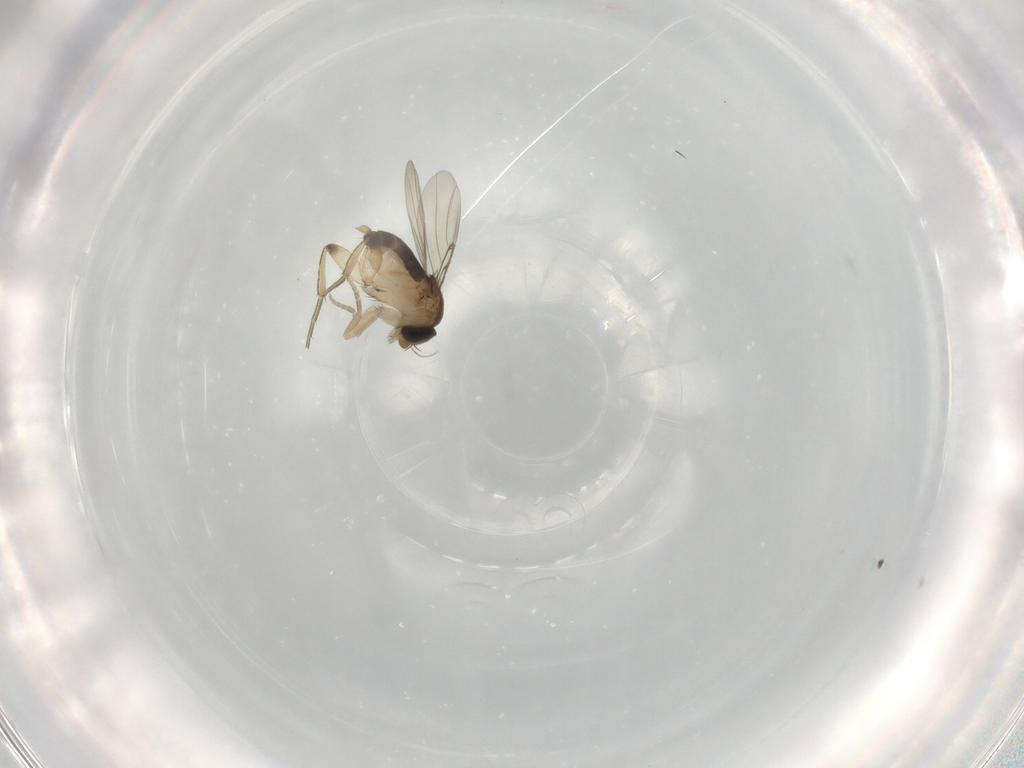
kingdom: Animalia
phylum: Arthropoda
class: Insecta
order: Diptera
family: Phoridae
